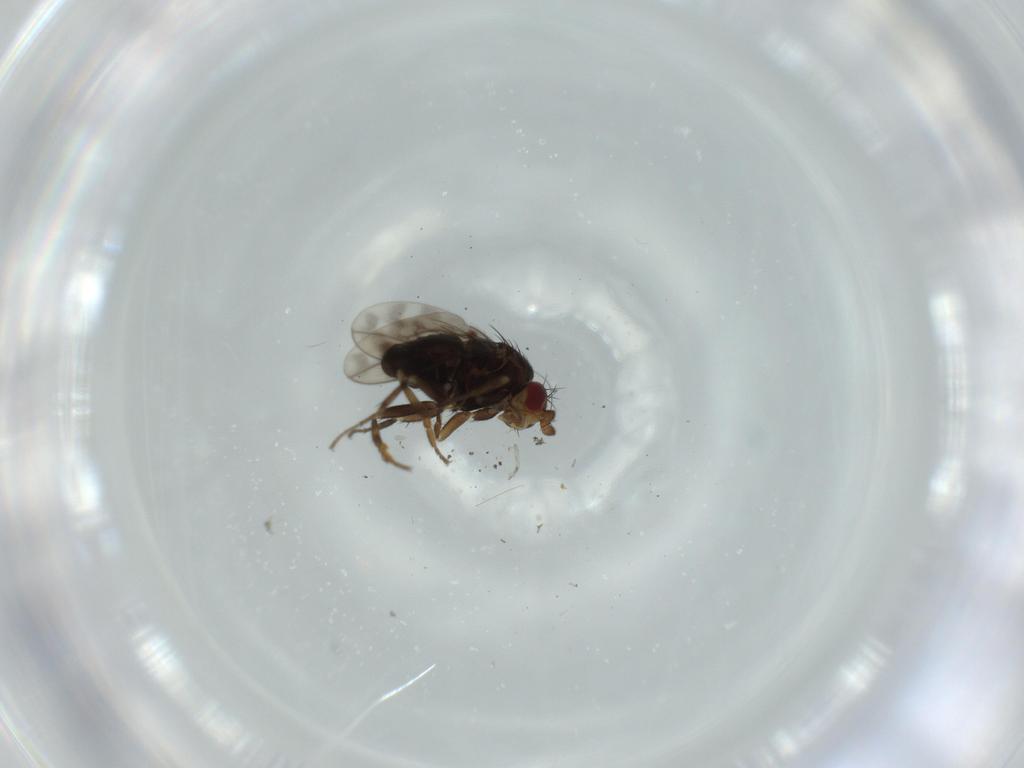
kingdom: Animalia
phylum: Arthropoda
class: Insecta
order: Diptera
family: Sphaeroceridae
